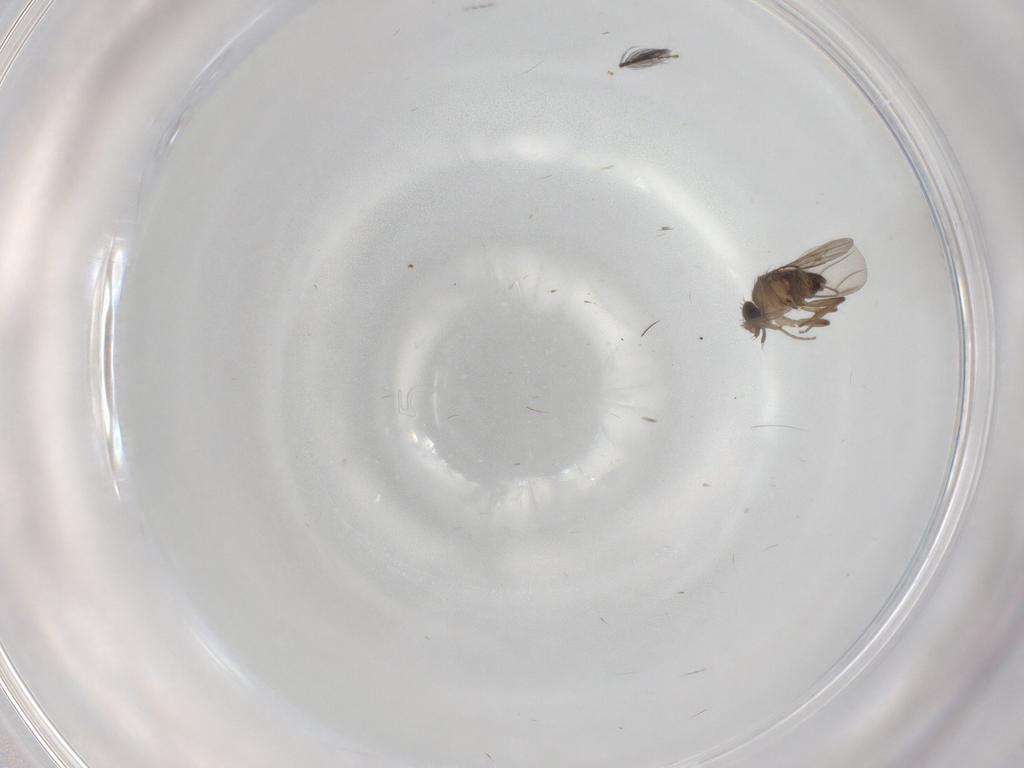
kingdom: Animalia
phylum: Arthropoda
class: Insecta
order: Diptera
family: Phoridae
